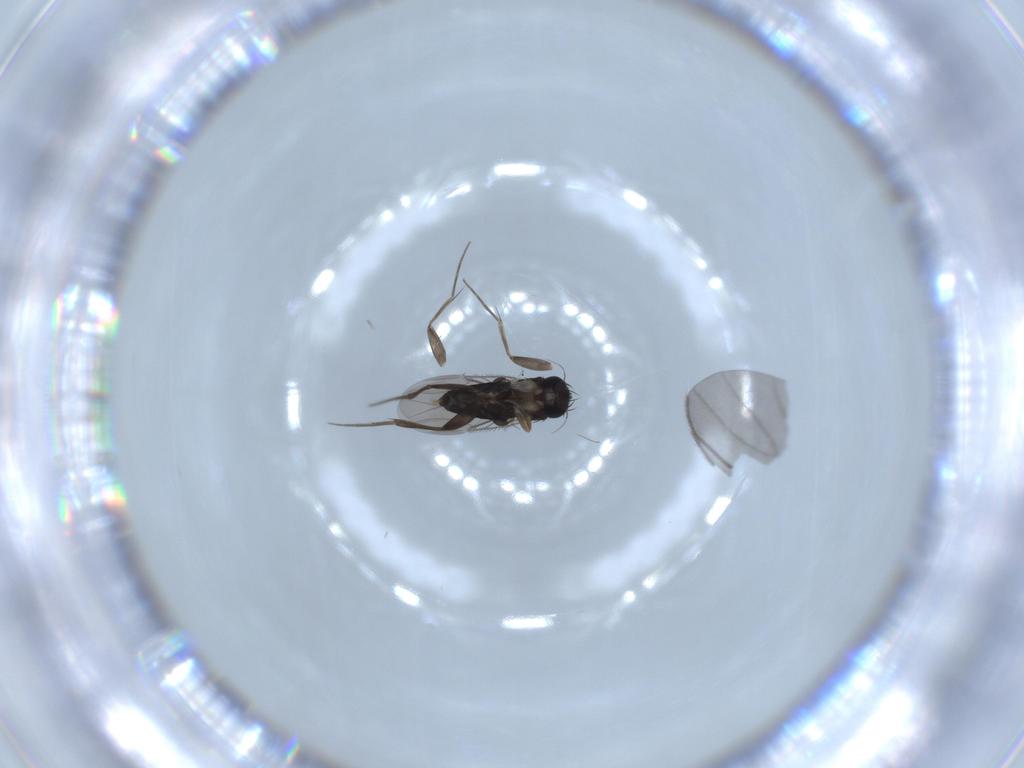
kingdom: Animalia
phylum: Arthropoda
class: Insecta
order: Diptera
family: Phoridae
